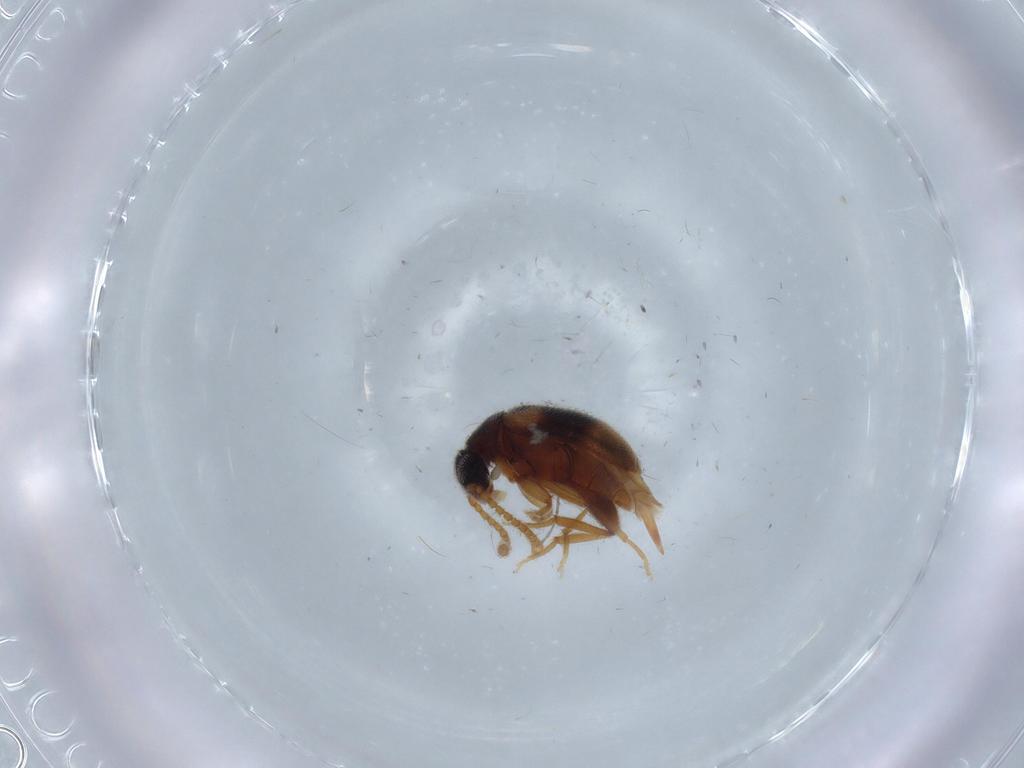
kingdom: Animalia
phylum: Arthropoda
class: Insecta
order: Coleoptera
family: Aderidae
